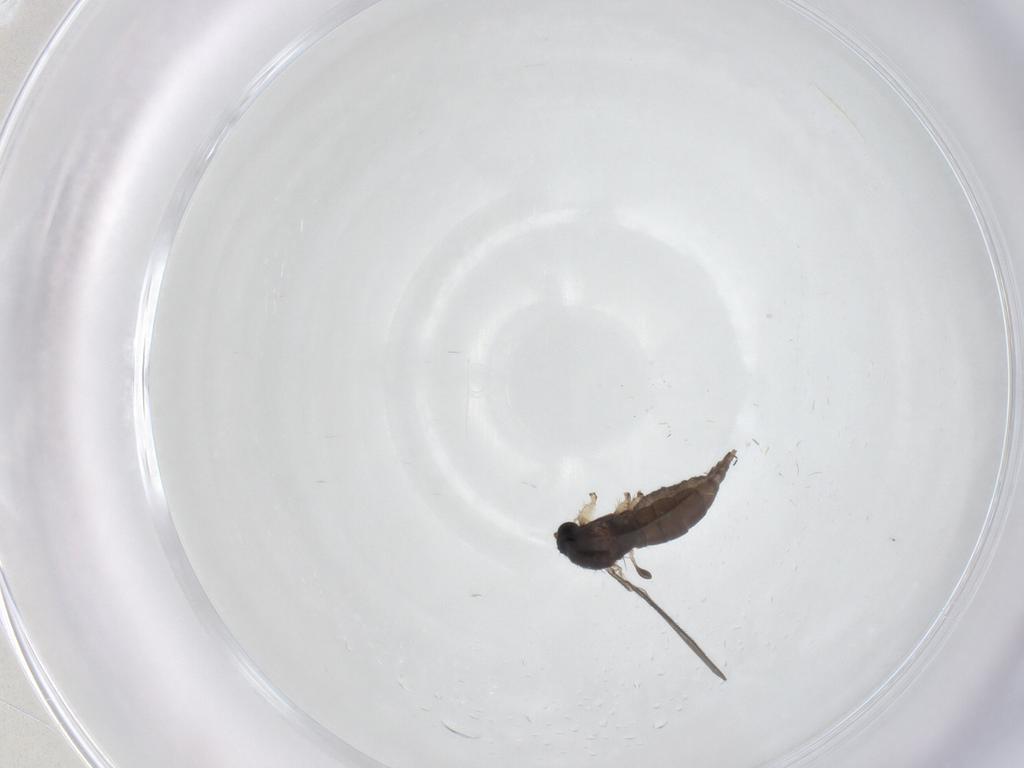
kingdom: Animalia
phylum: Arthropoda
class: Insecta
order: Diptera
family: Sciaridae
